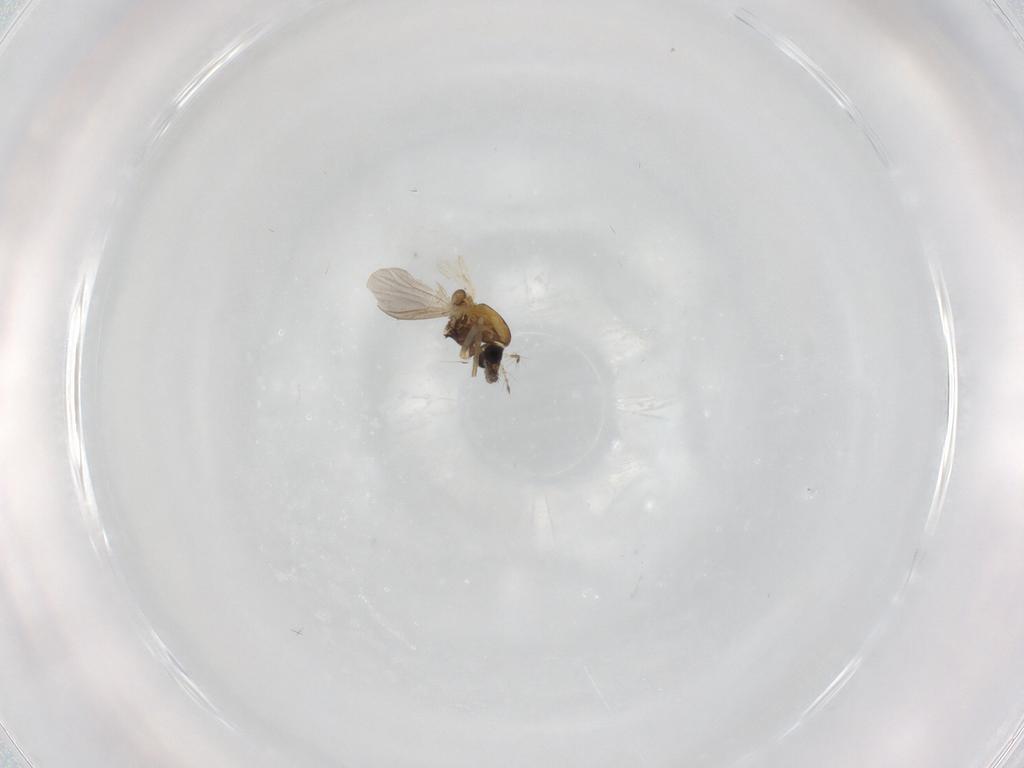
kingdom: Animalia
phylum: Arthropoda
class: Insecta
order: Diptera
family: Chironomidae
